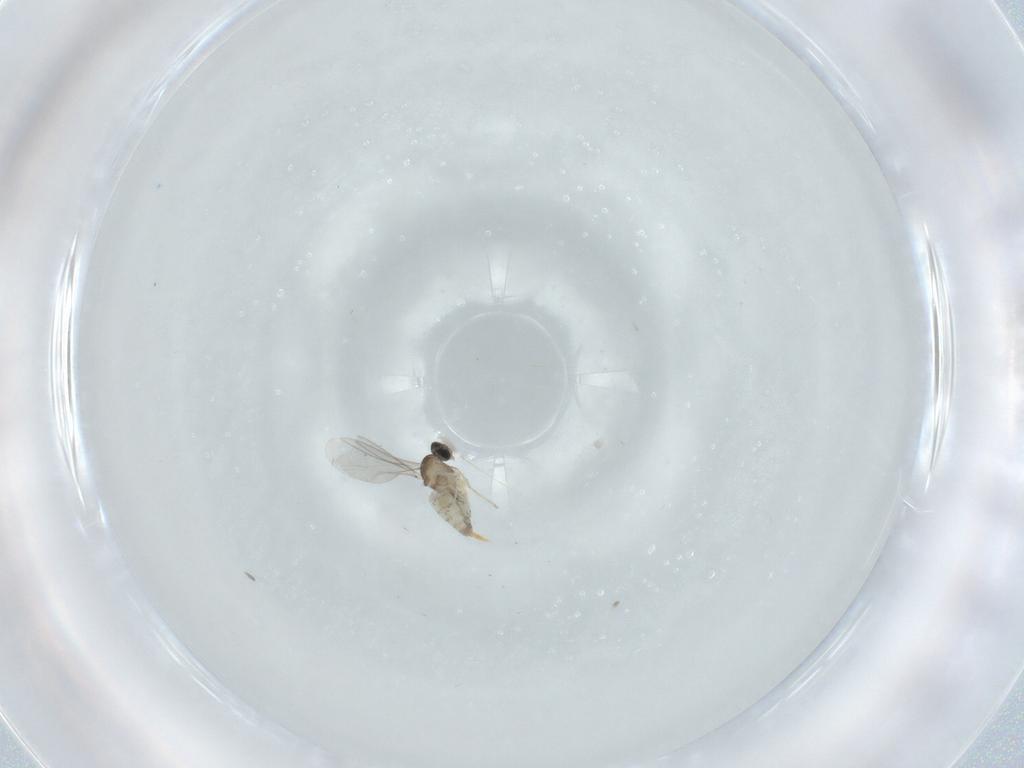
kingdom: Animalia
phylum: Arthropoda
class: Insecta
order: Diptera
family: Cecidomyiidae
